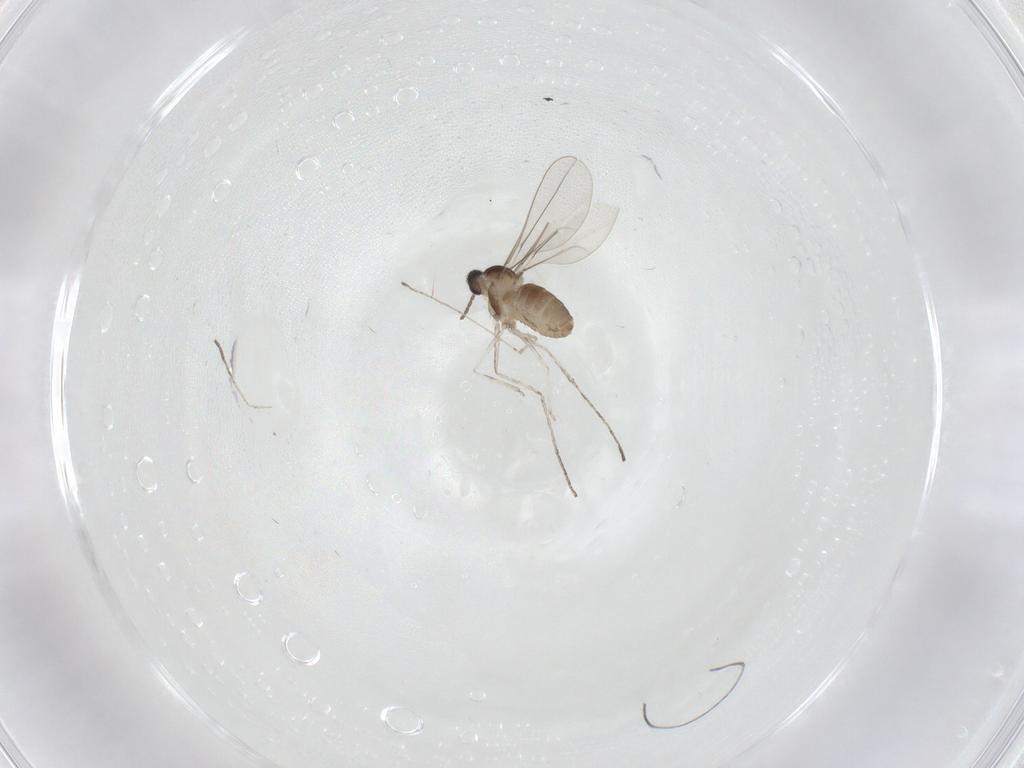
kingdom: Animalia
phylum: Arthropoda
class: Insecta
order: Diptera
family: Cecidomyiidae
